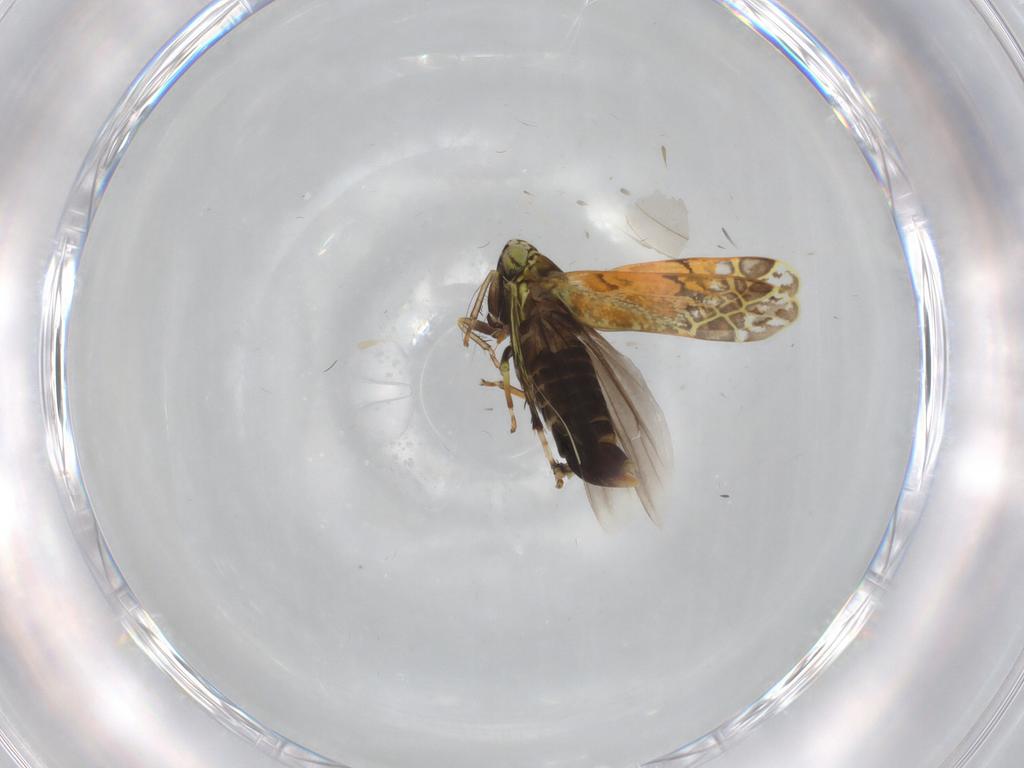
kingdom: Animalia
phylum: Arthropoda
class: Insecta
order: Hemiptera
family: Cicadellidae
